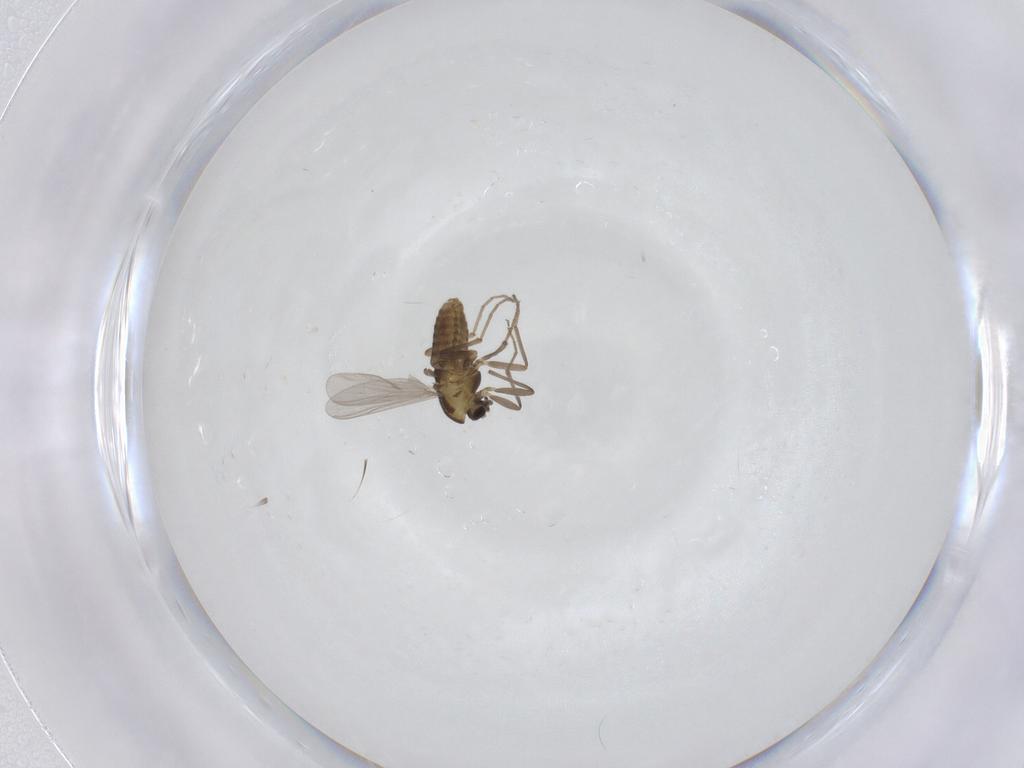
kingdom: Animalia
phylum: Arthropoda
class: Insecta
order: Diptera
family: Chironomidae
